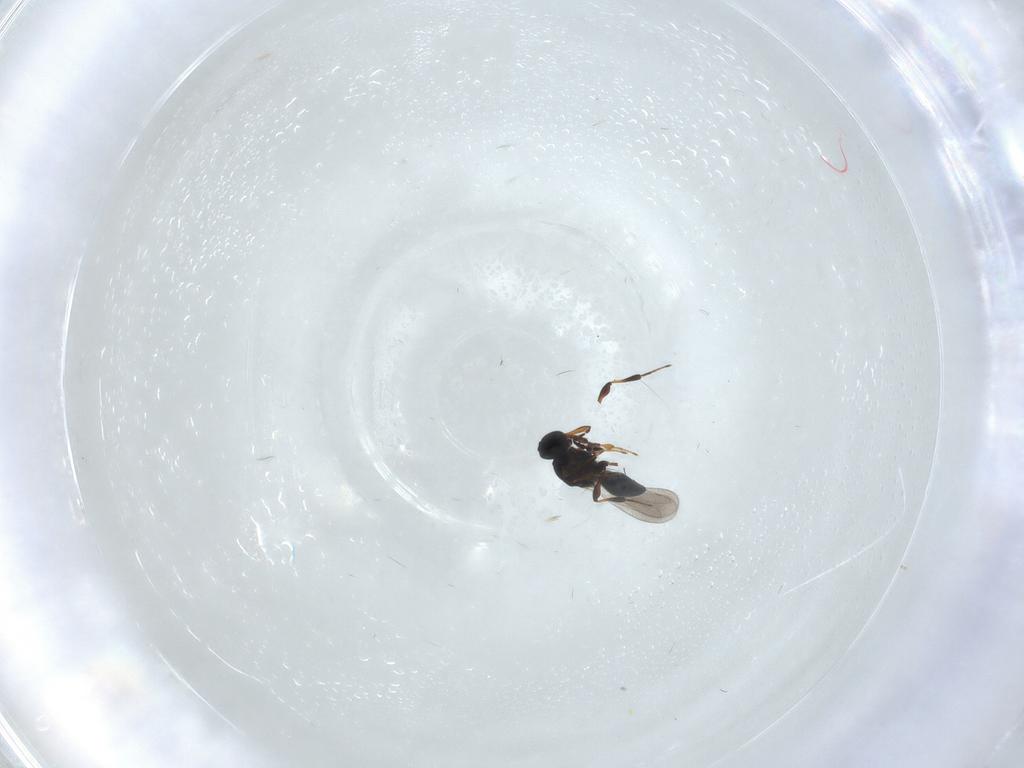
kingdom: Animalia
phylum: Arthropoda
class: Insecta
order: Hymenoptera
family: Platygastridae
